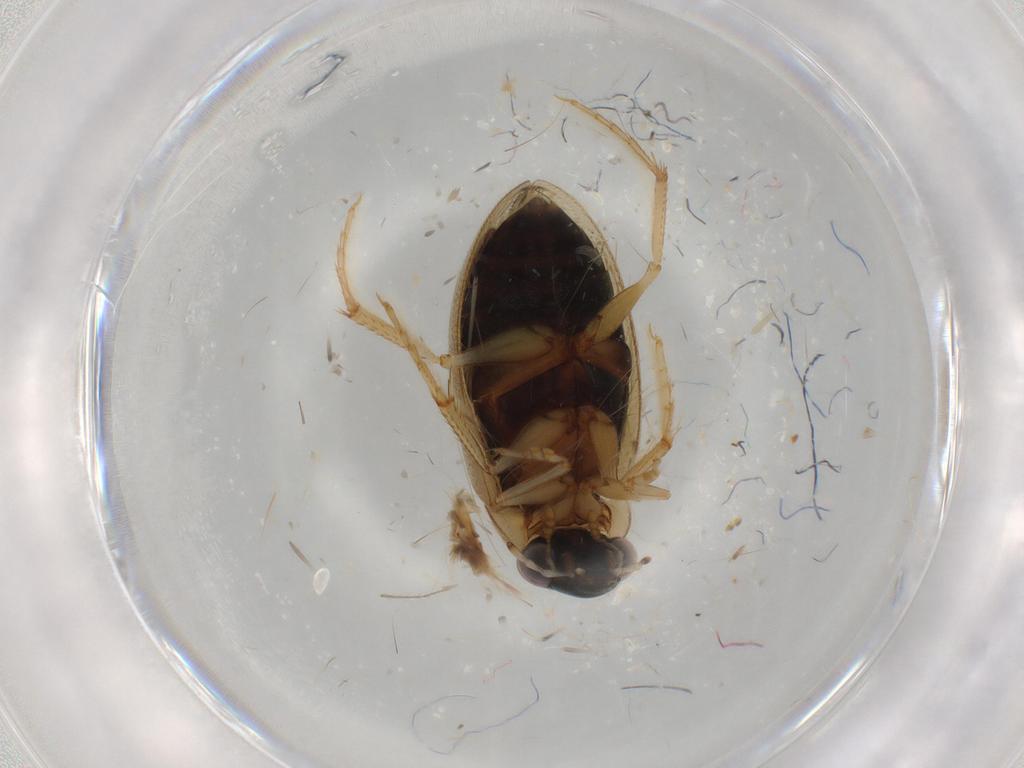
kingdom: Animalia
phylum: Arthropoda
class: Insecta
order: Coleoptera
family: Hydrophilidae
